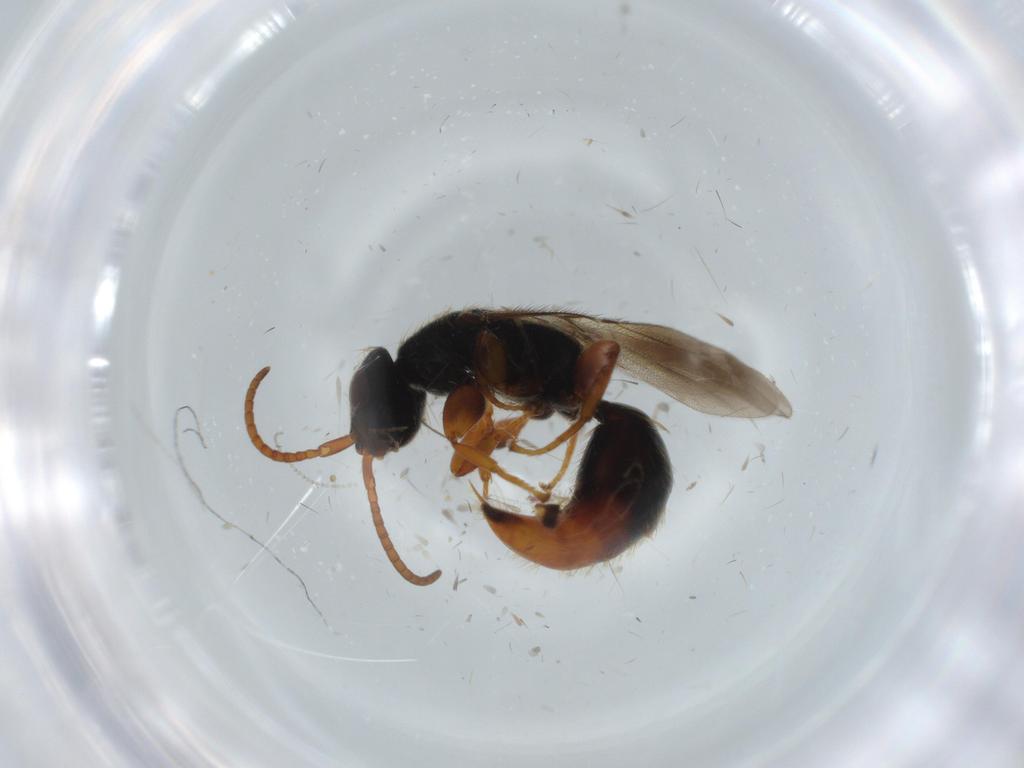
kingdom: Animalia
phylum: Arthropoda
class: Insecta
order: Hymenoptera
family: Bethylidae
